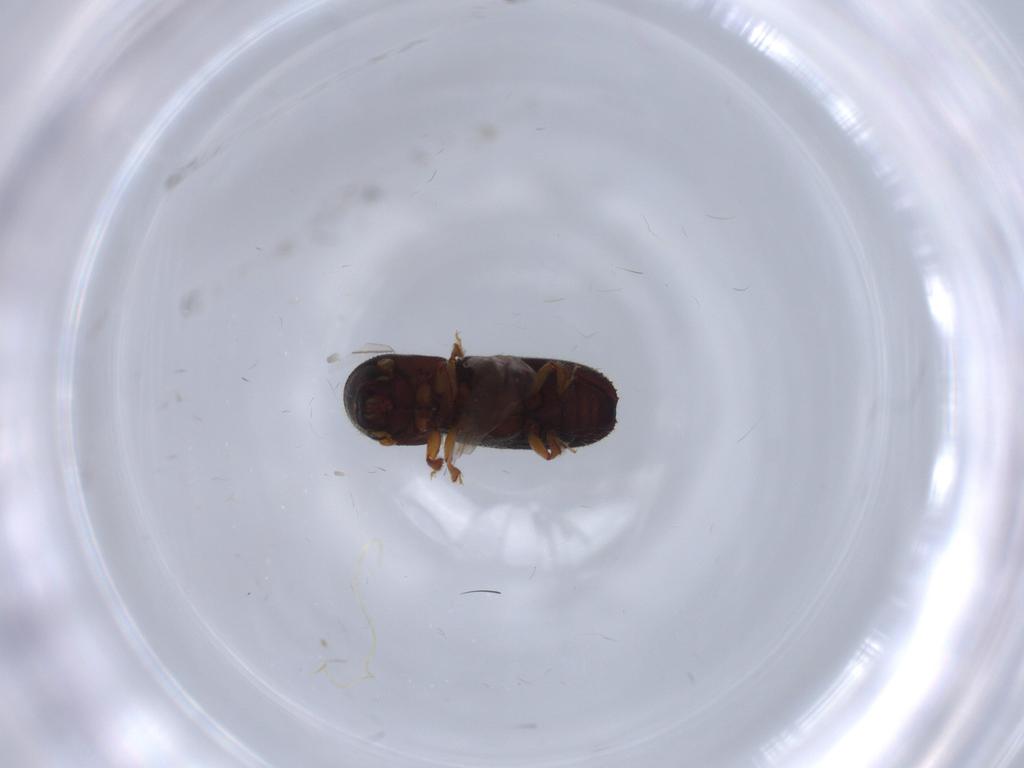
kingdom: Animalia
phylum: Arthropoda
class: Insecta
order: Coleoptera
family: Curculionidae
